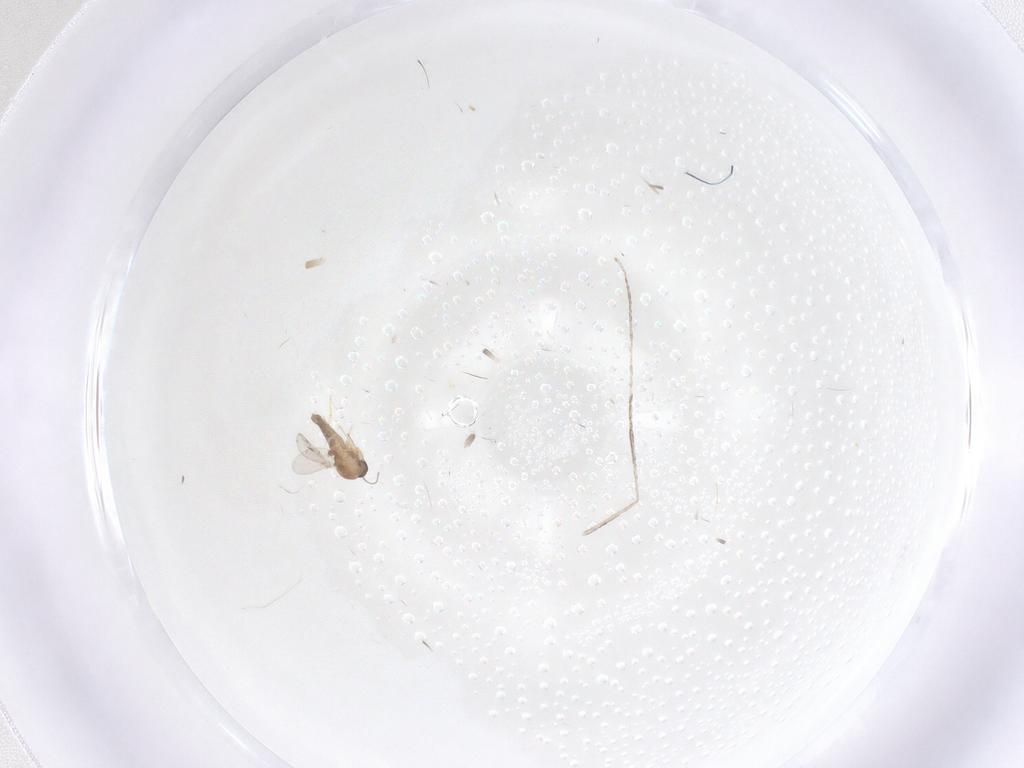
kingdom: Animalia
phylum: Arthropoda
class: Insecta
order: Diptera
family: Ceratopogonidae
